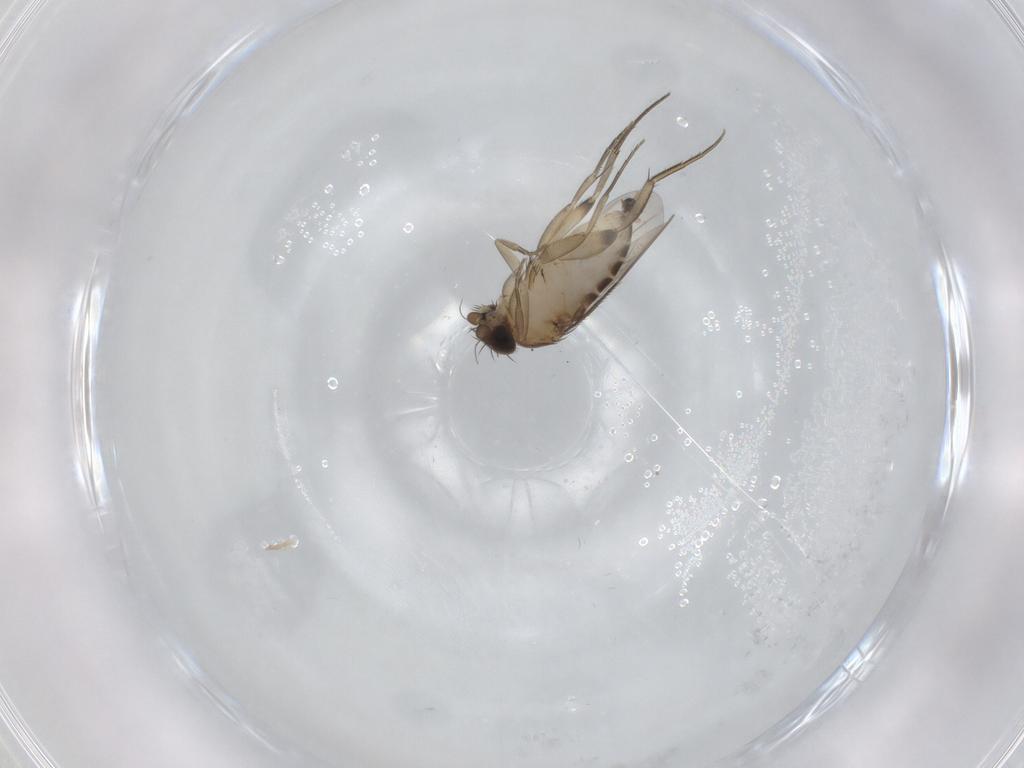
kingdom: Animalia
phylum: Arthropoda
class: Insecta
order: Diptera
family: Phoridae
